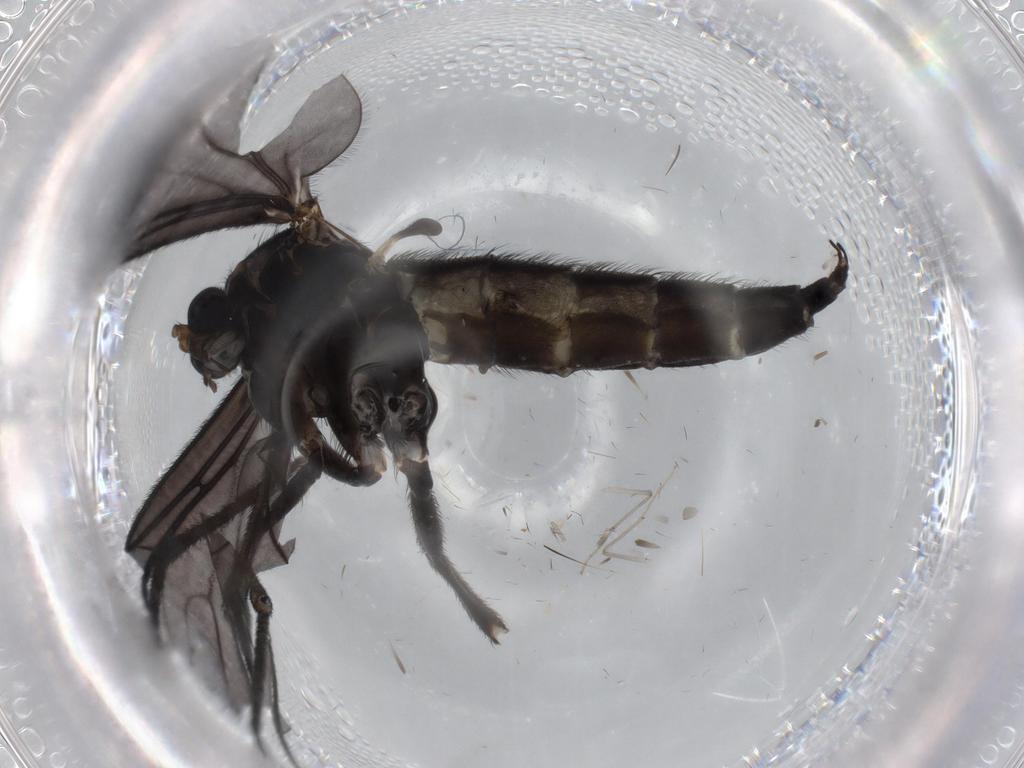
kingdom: Animalia
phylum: Arthropoda
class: Insecta
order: Diptera
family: Sciaridae
